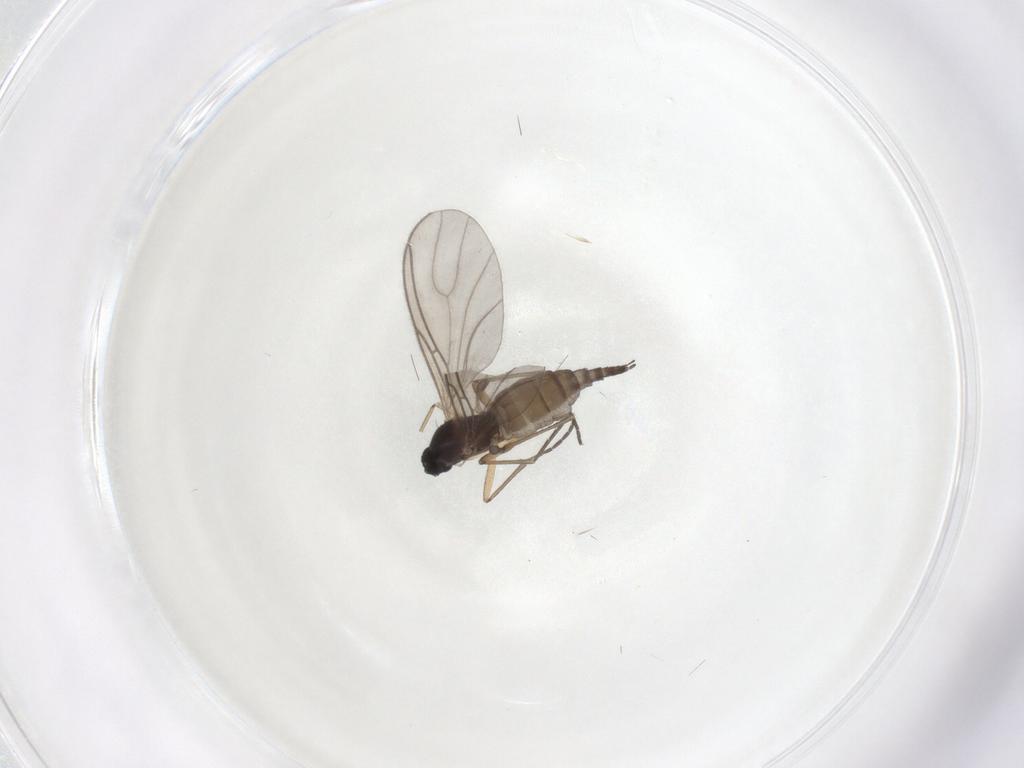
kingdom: Animalia
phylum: Arthropoda
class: Insecta
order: Diptera
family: Sciaridae
